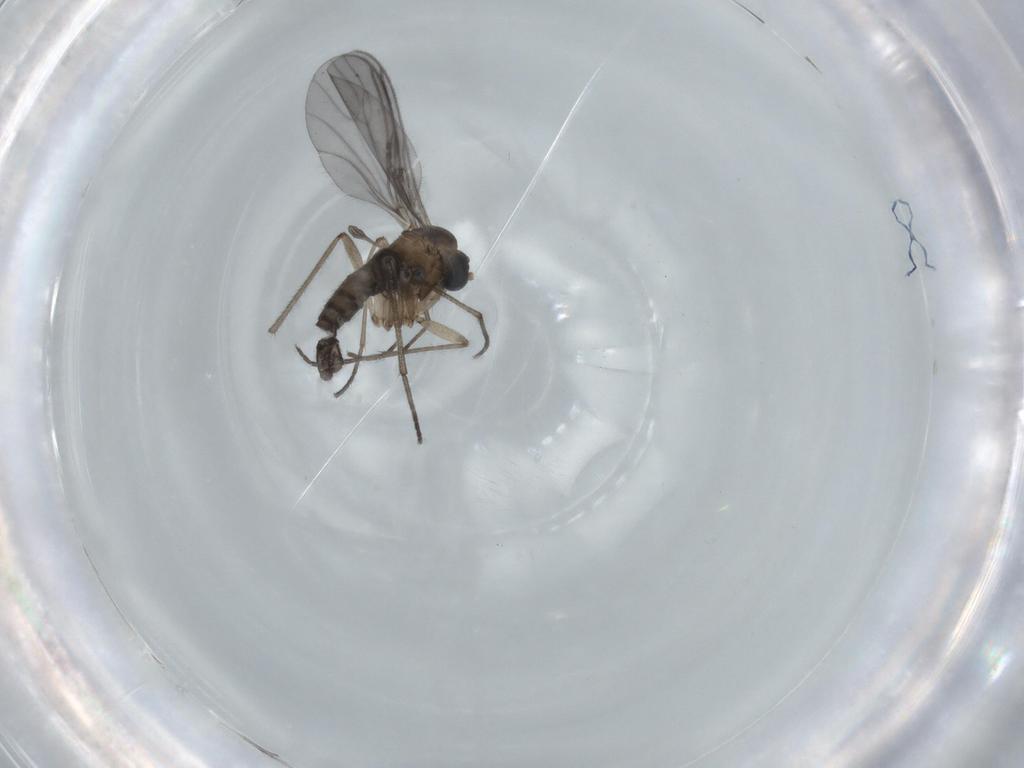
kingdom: Animalia
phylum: Arthropoda
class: Insecta
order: Diptera
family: Sciaridae
